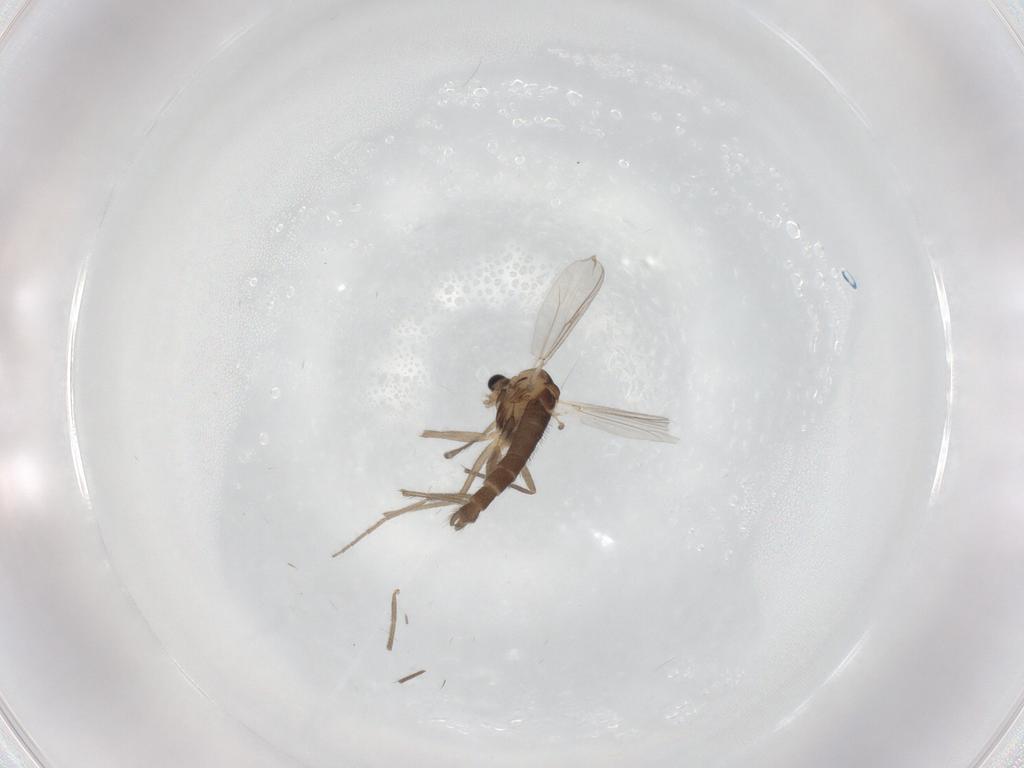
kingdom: Animalia
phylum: Arthropoda
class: Insecta
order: Diptera
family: Chironomidae
